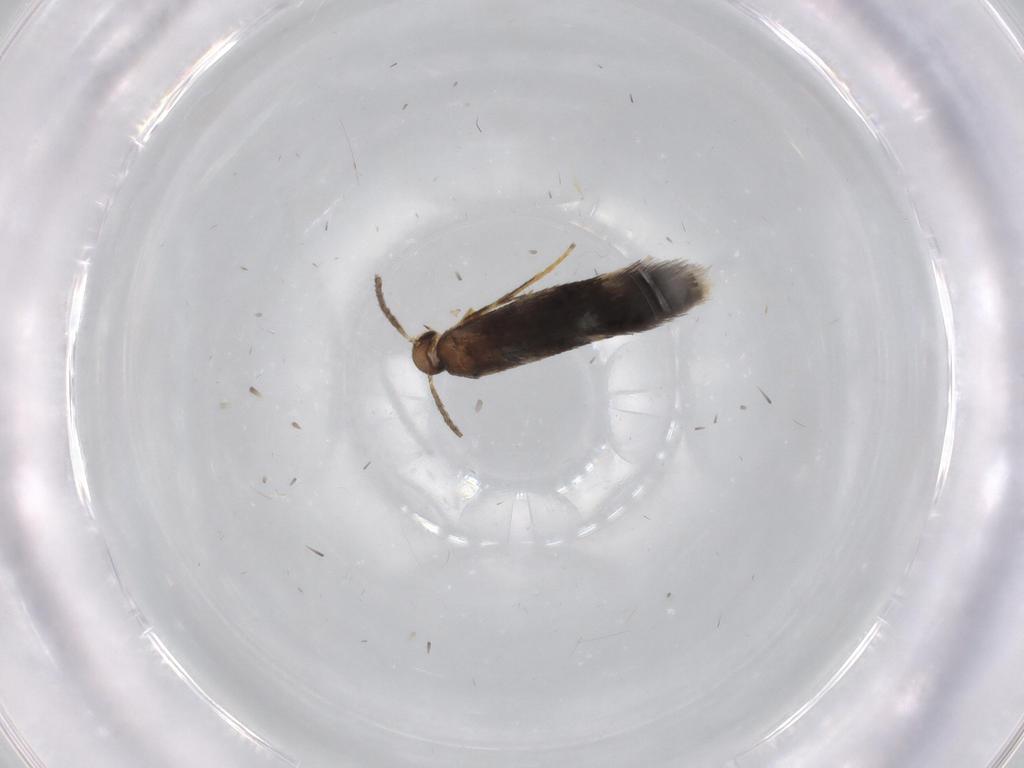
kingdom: Animalia
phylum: Arthropoda
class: Insecta
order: Lepidoptera
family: Heliozelidae
